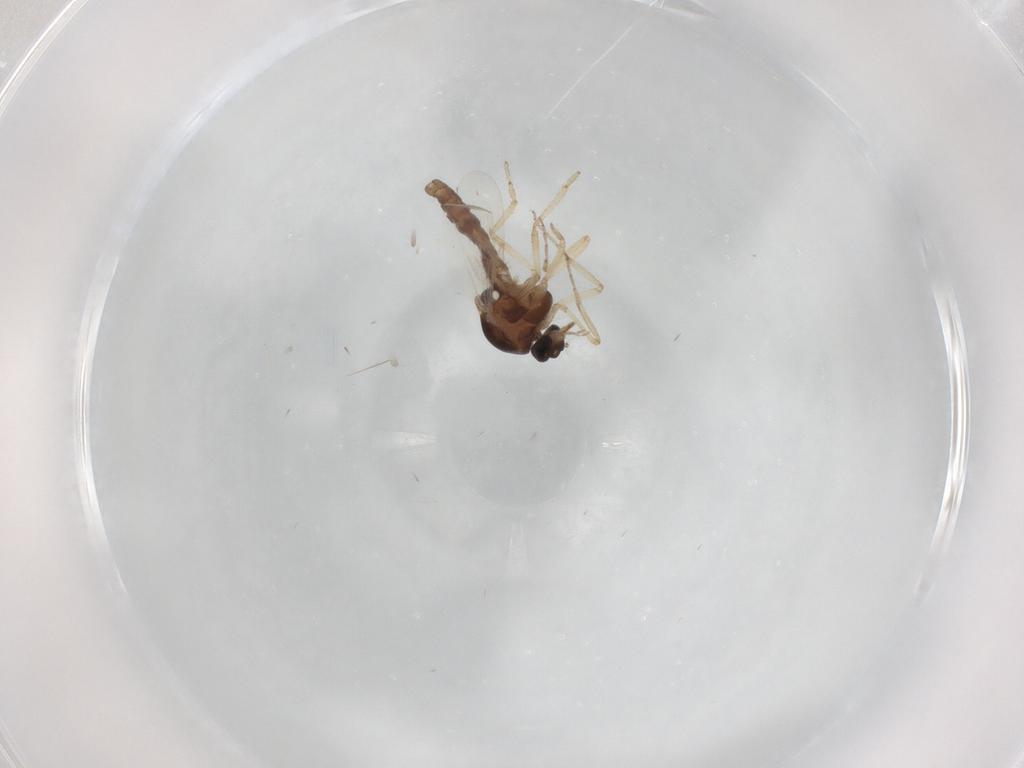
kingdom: Animalia
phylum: Arthropoda
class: Insecta
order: Diptera
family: Ceratopogonidae
